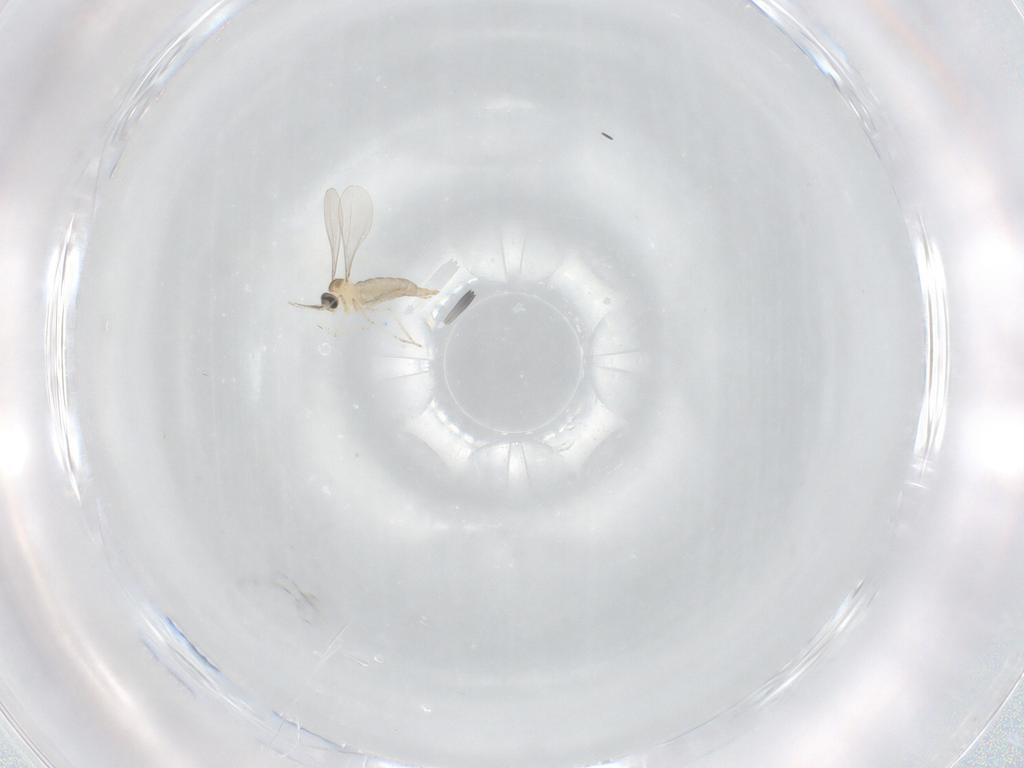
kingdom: Animalia
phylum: Arthropoda
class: Insecta
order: Diptera
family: Cecidomyiidae
